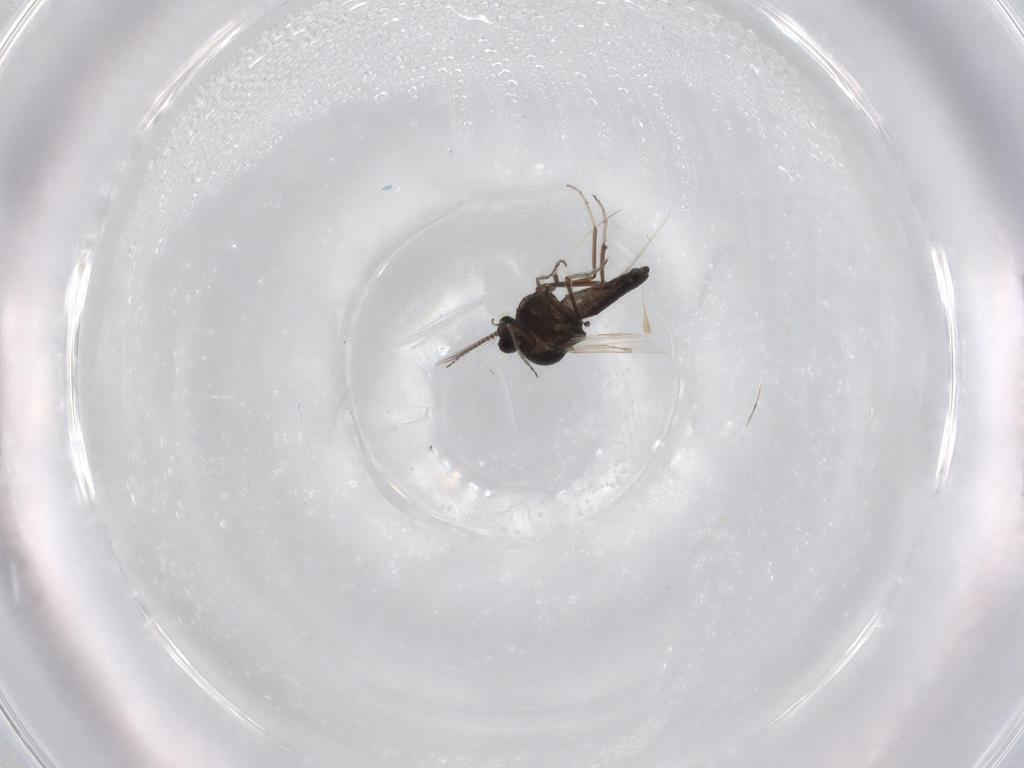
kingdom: Animalia
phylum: Arthropoda
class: Insecta
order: Diptera
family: Ceratopogonidae
